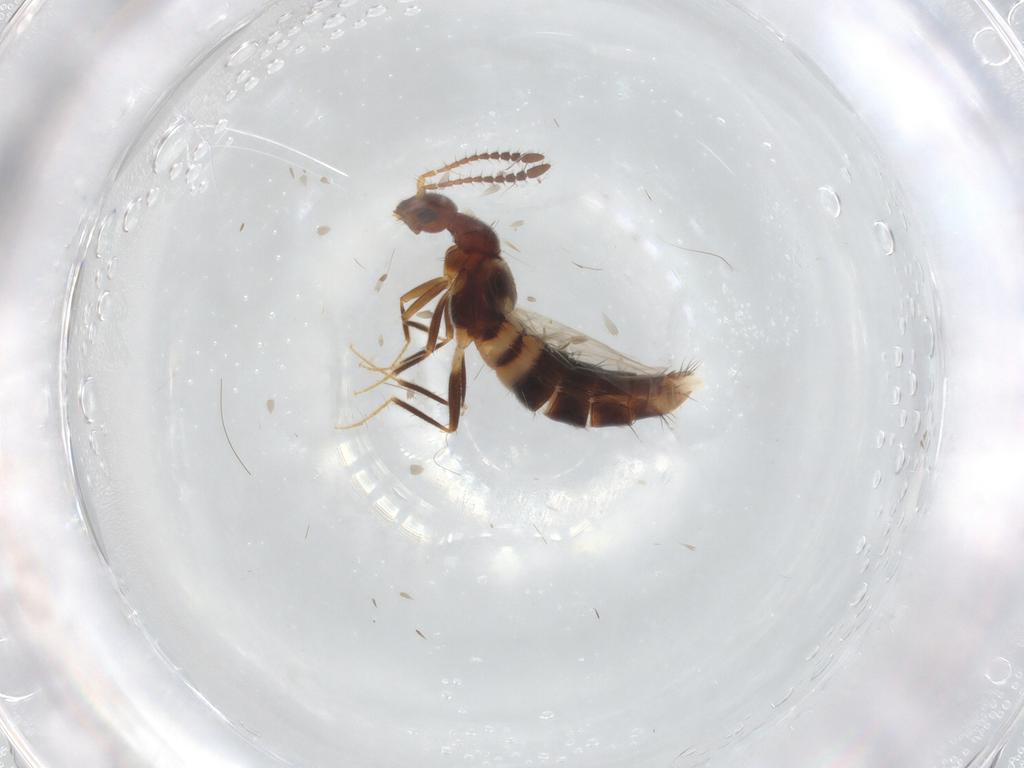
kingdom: Animalia
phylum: Arthropoda
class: Insecta
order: Coleoptera
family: Staphylinidae
